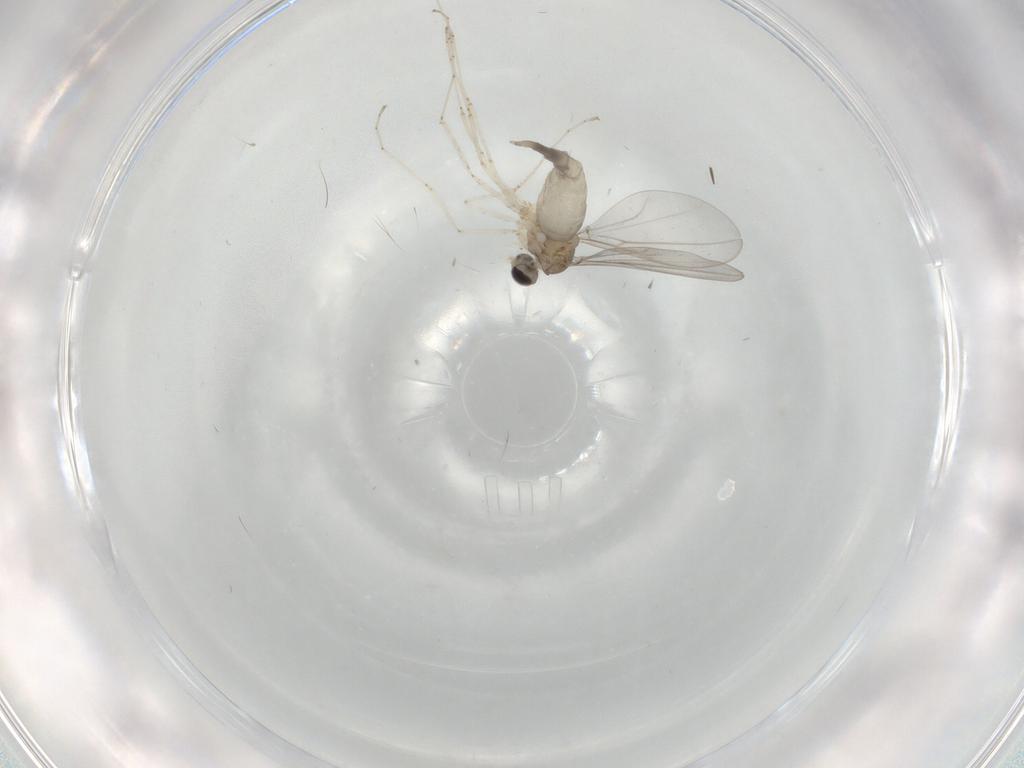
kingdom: Animalia
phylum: Arthropoda
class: Insecta
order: Diptera
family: Cecidomyiidae
